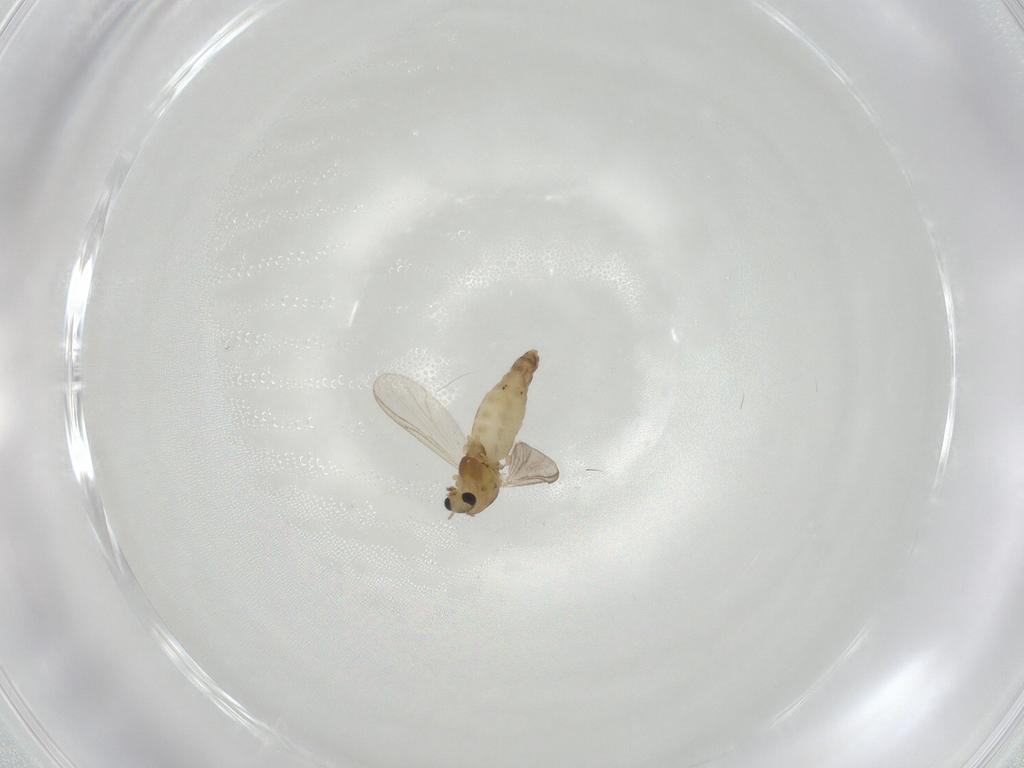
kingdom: Animalia
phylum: Arthropoda
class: Insecta
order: Diptera
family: Chironomidae
